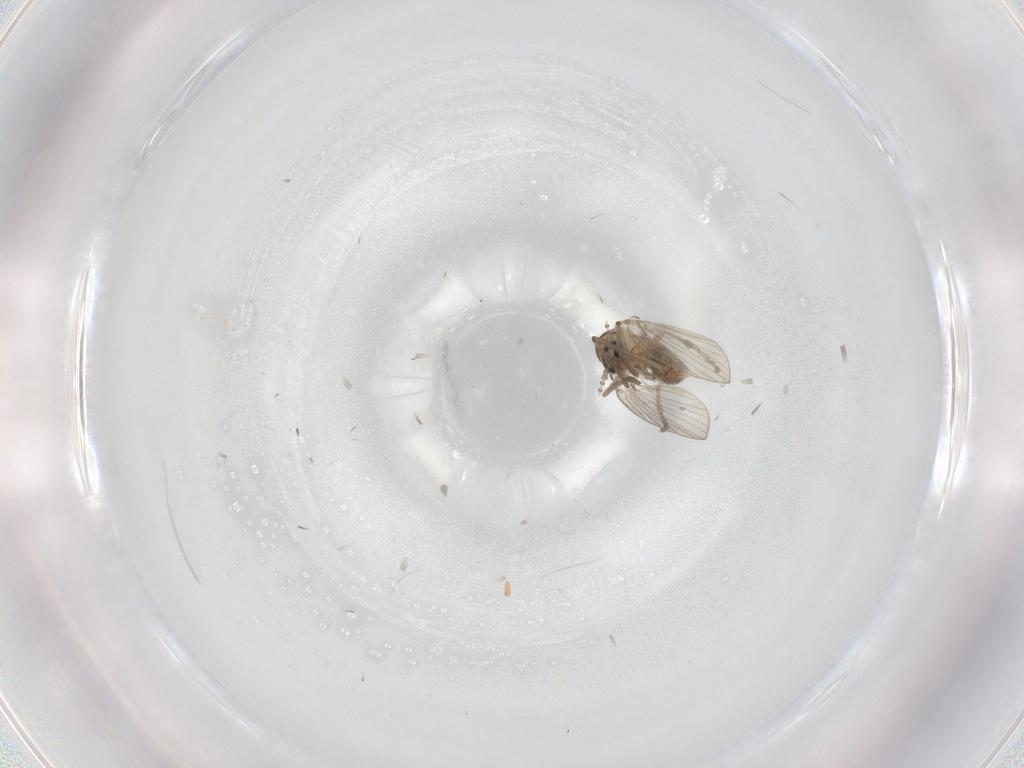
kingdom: Animalia
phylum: Arthropoda
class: Insecta
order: Diptera
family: Psychodidae
